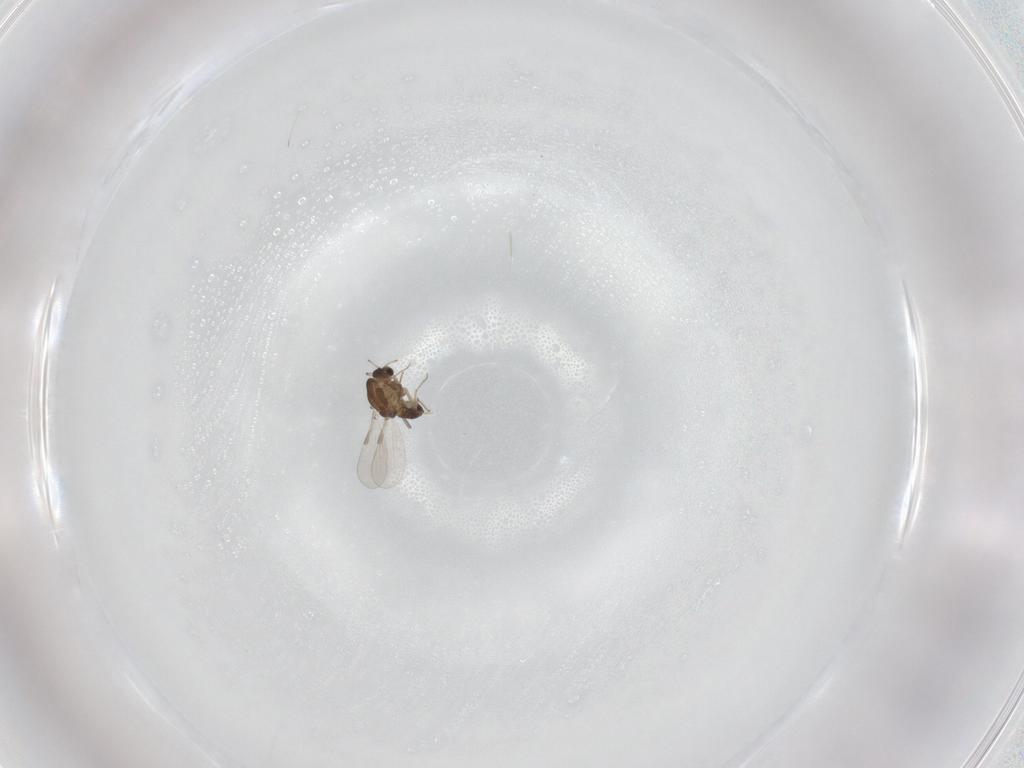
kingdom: Animalia
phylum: Arthropoda
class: Insecta
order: Diptera
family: Chironomidae
